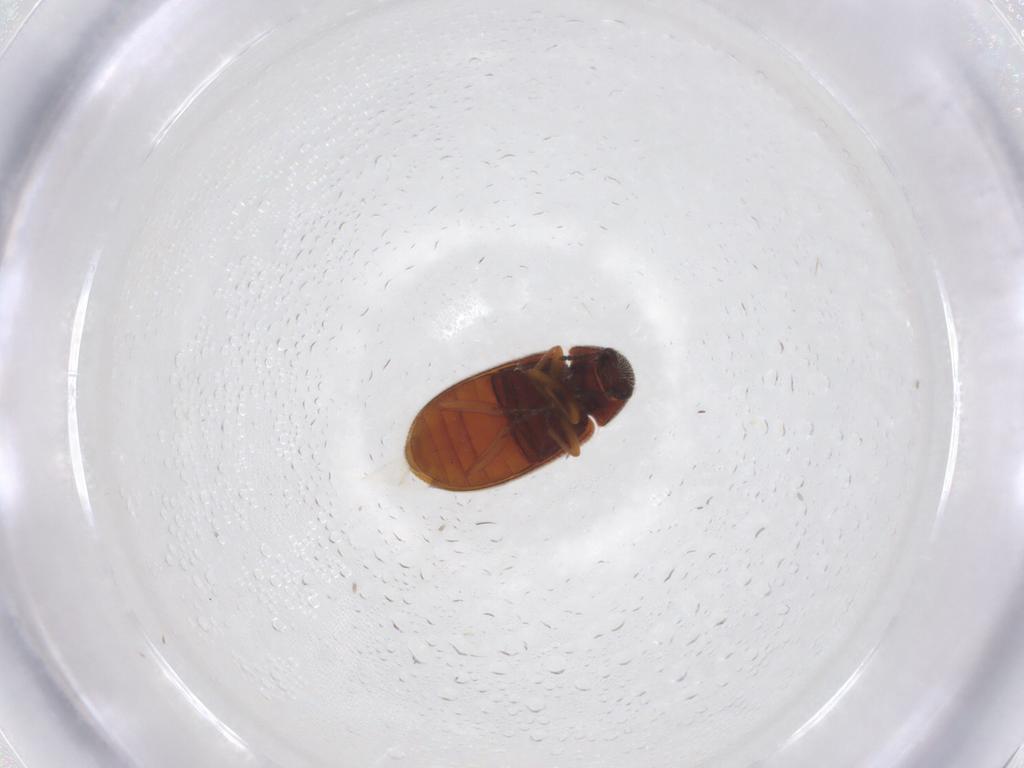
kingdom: Animalia
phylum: Arthropoda
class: Insecta
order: Coleoptera
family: Rhadalidae
